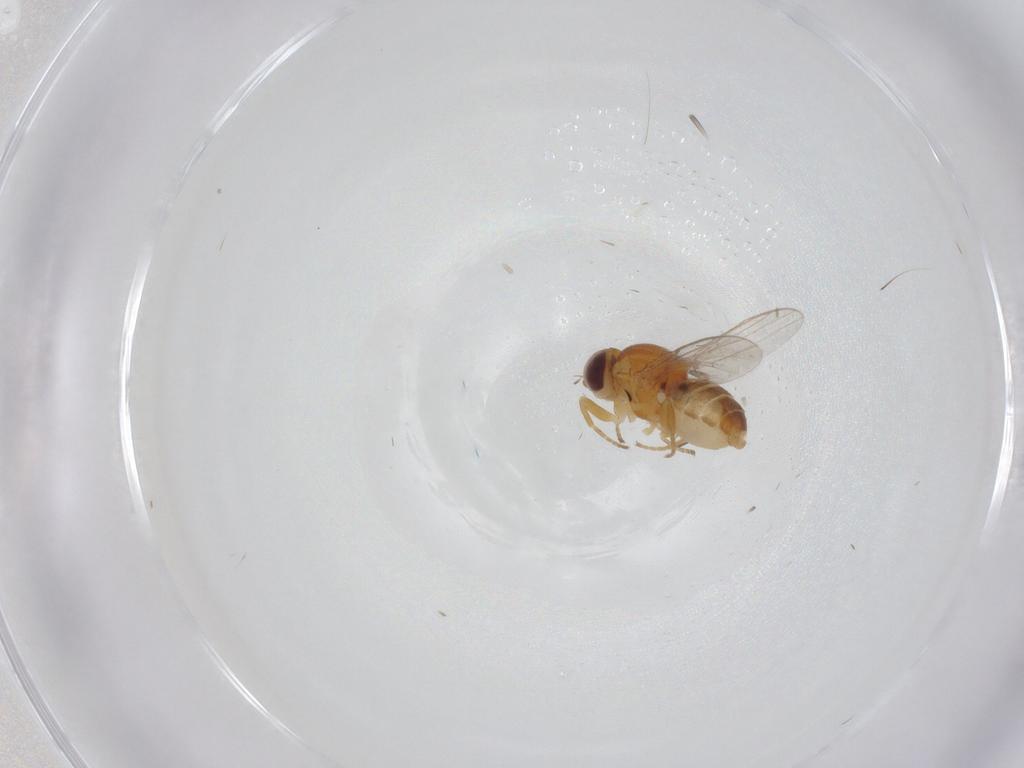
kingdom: Animalia
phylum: Arthropoda
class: Insecta
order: Diptera
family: Chloropidae
